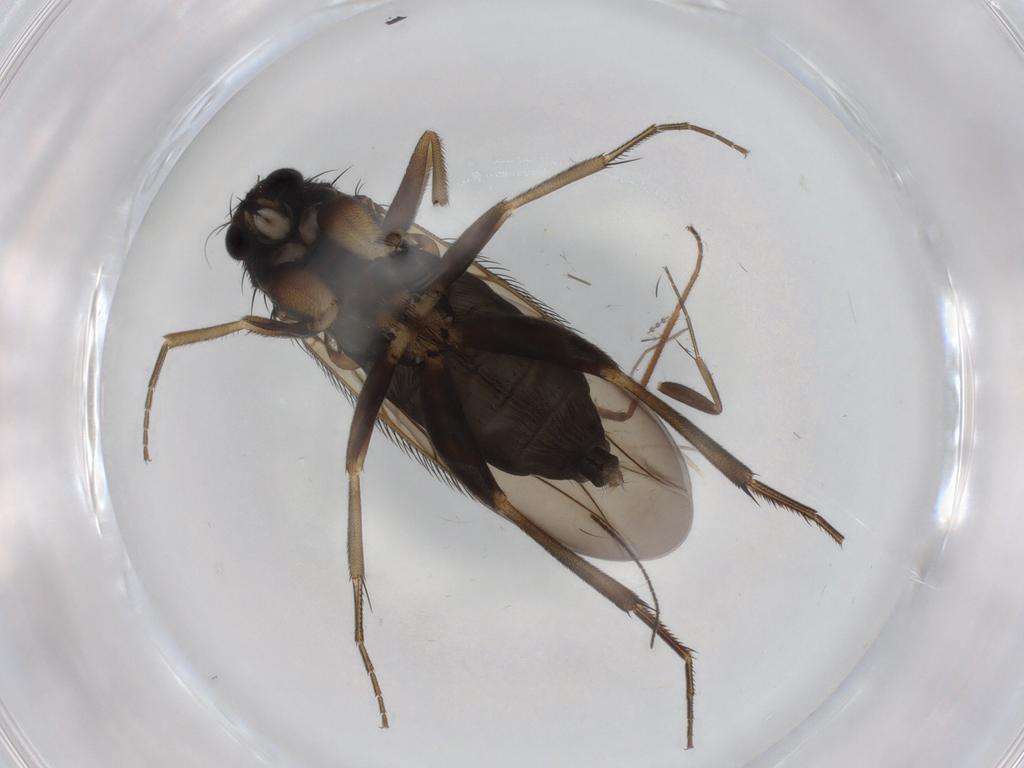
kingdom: Animalia
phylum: Arthropoda
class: Insecta
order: Diptera
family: Phoridae
